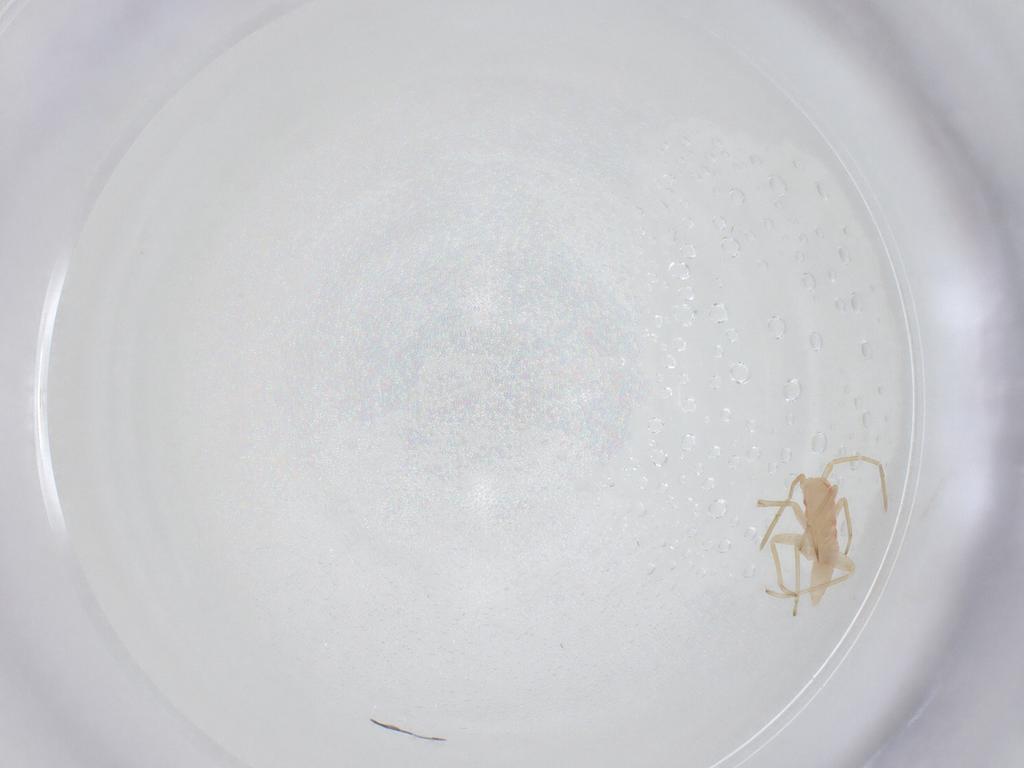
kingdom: Animalia
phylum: Arthropoda
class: Insecta
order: Hemiptera
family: Miridae
